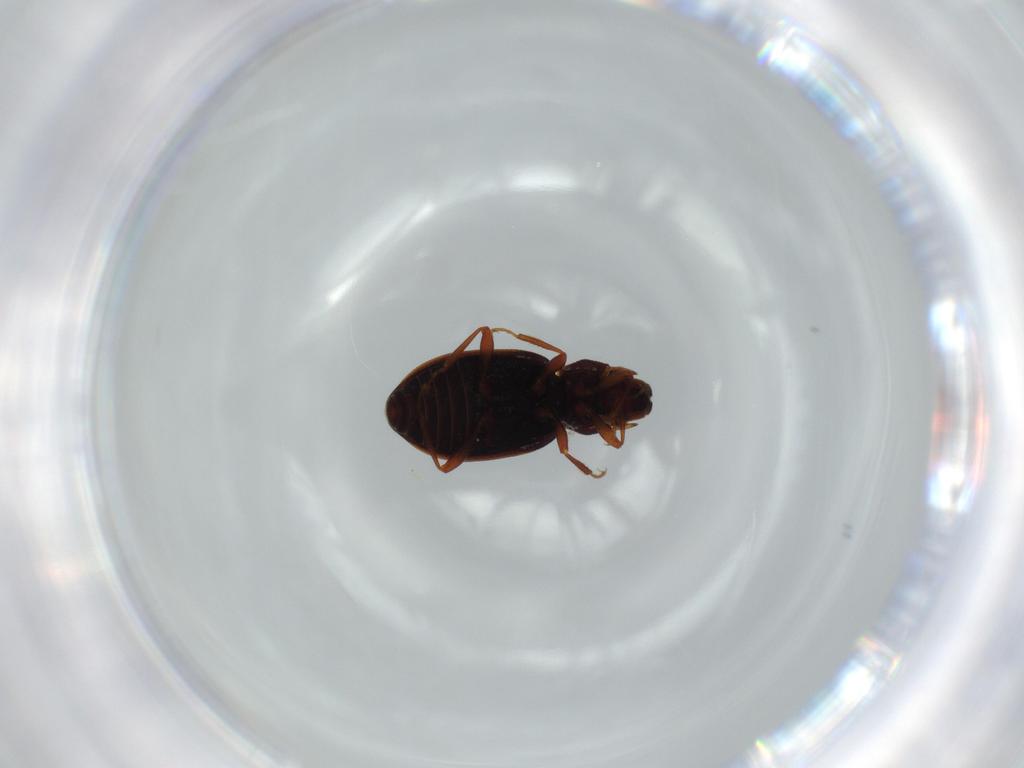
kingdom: Animalia
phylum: Arthropoda
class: Insecta
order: Coleoptera
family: Hydraenidae
